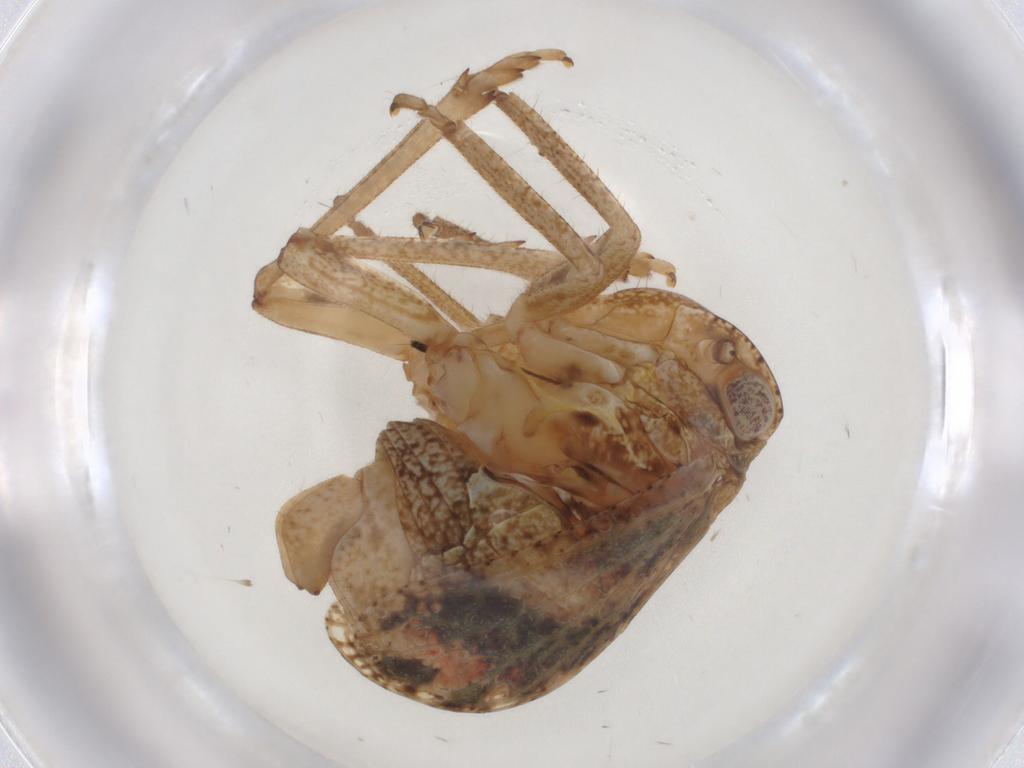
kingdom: Animalia
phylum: Arthropoda
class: Insecta
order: Hemiptera
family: Tropiduchidae
